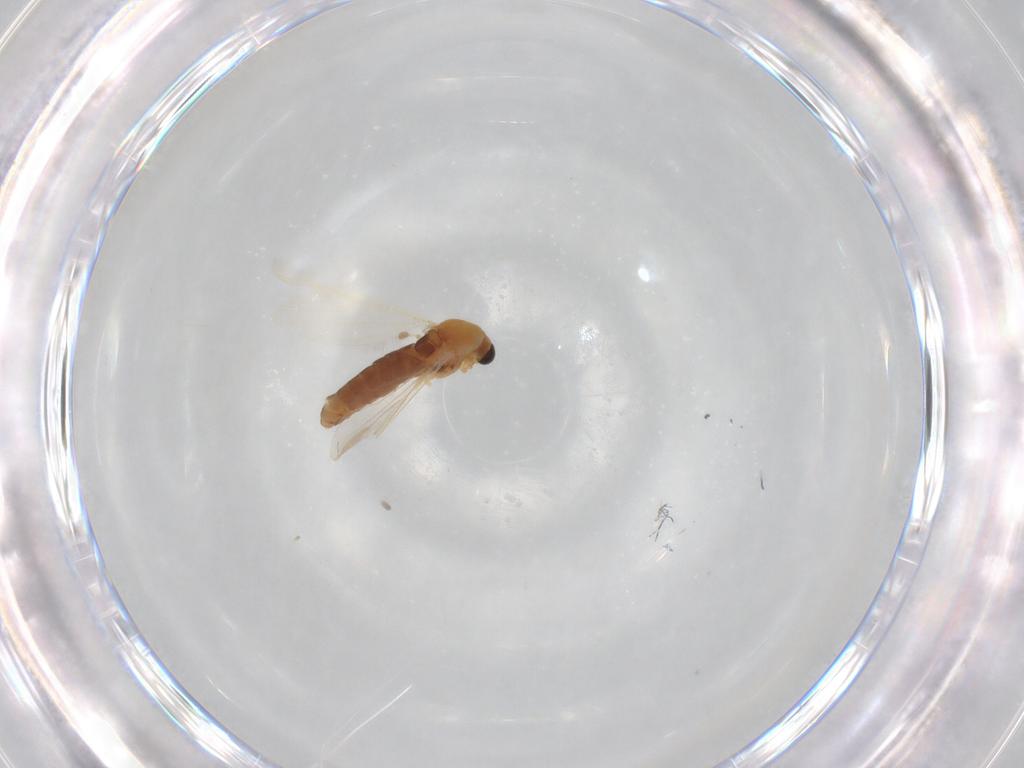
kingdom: Animalia
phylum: Arthropoda
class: Insecta
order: Diptera
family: Chironomidae
